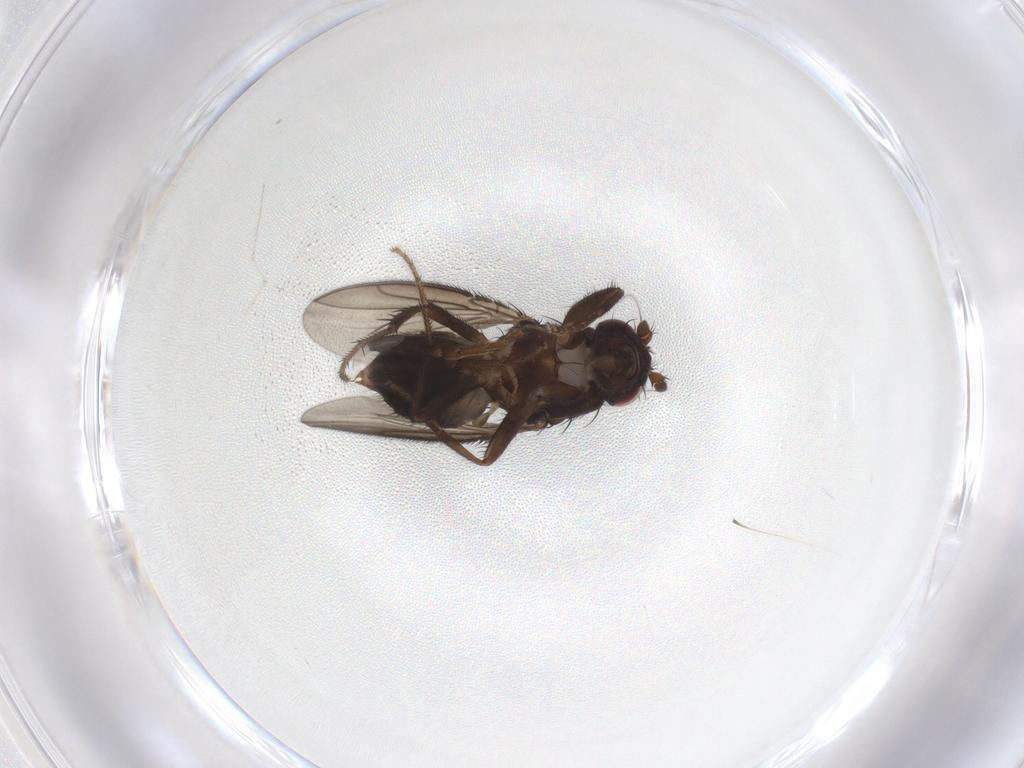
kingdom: Animalia
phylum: Arthropoda
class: Insecta
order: Diptera
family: Sphaeroceridae
